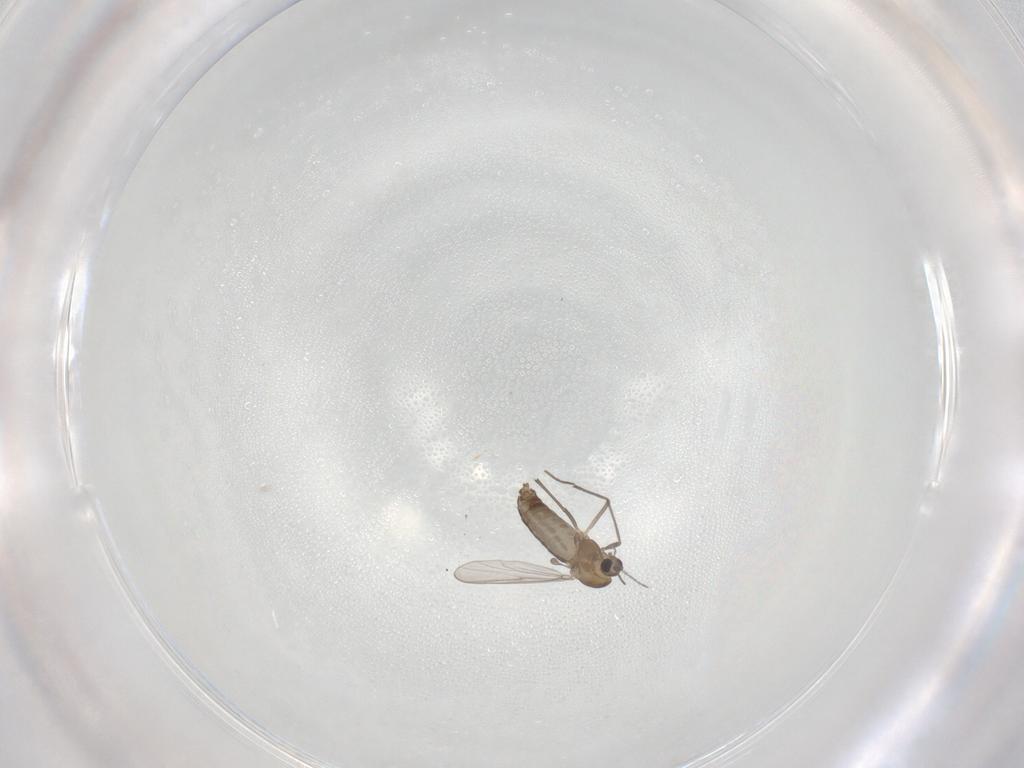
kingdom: Animalia
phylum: Arthropoda
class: Insecta
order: Diptera
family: Chironomidae
